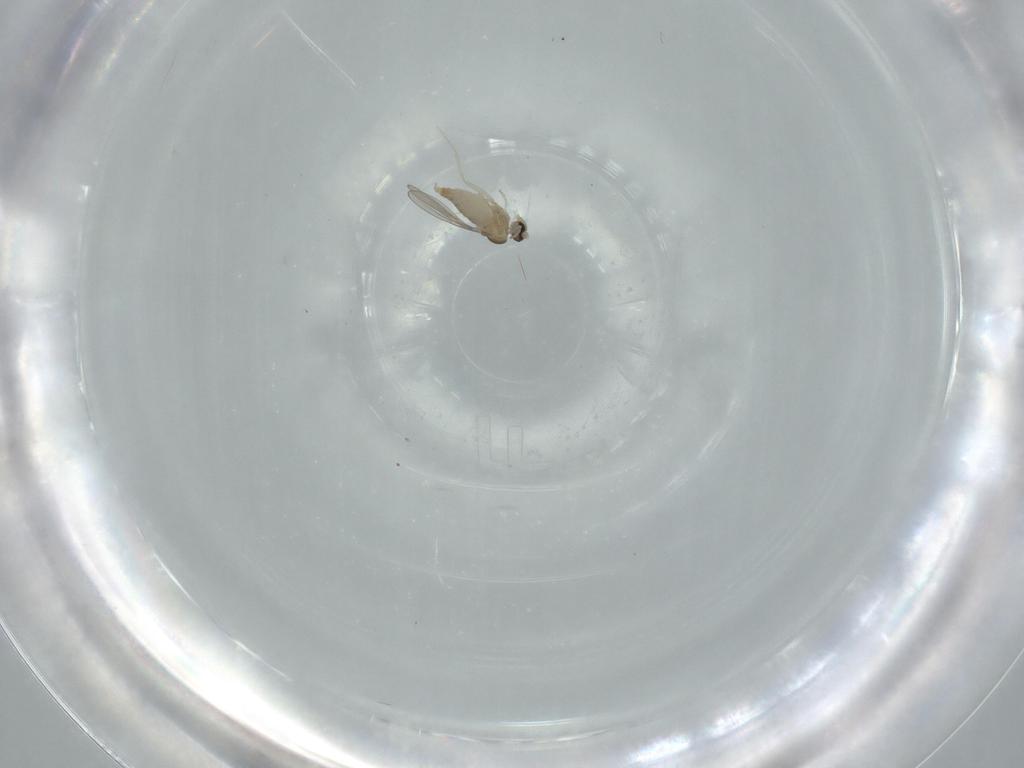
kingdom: Animalia
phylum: Arthropoda
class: Insecta
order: Diptera
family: Cecidomyiidae
